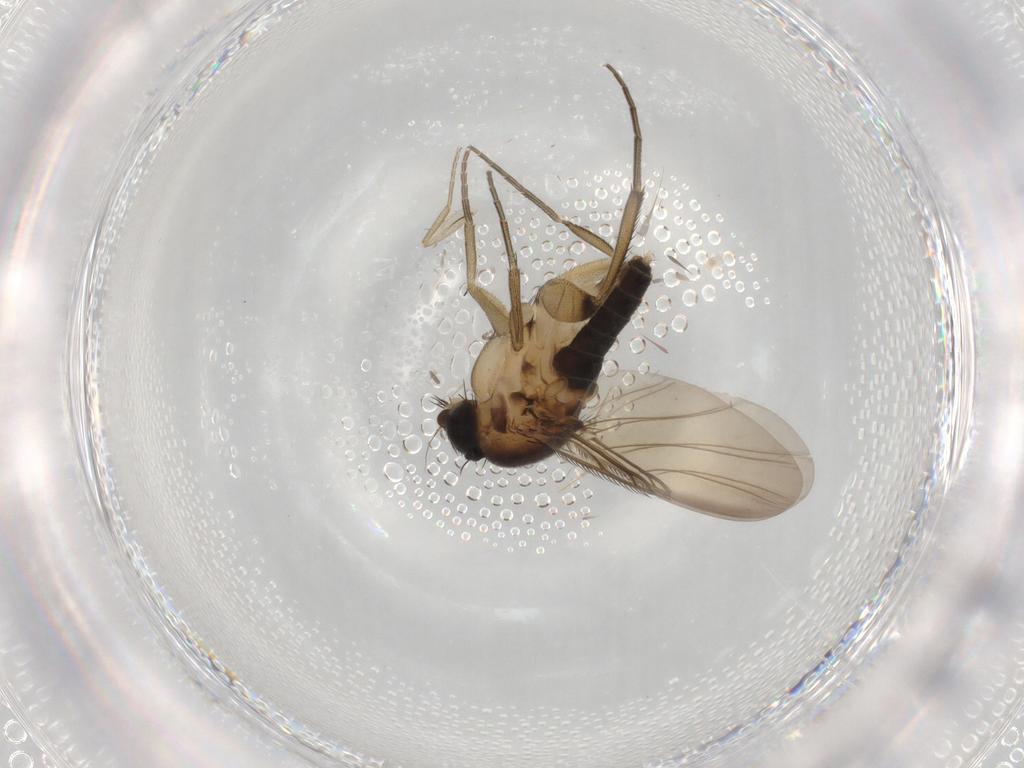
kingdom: Animalia
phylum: Arthropoda
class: Insecta
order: Diptera
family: Phoridae
